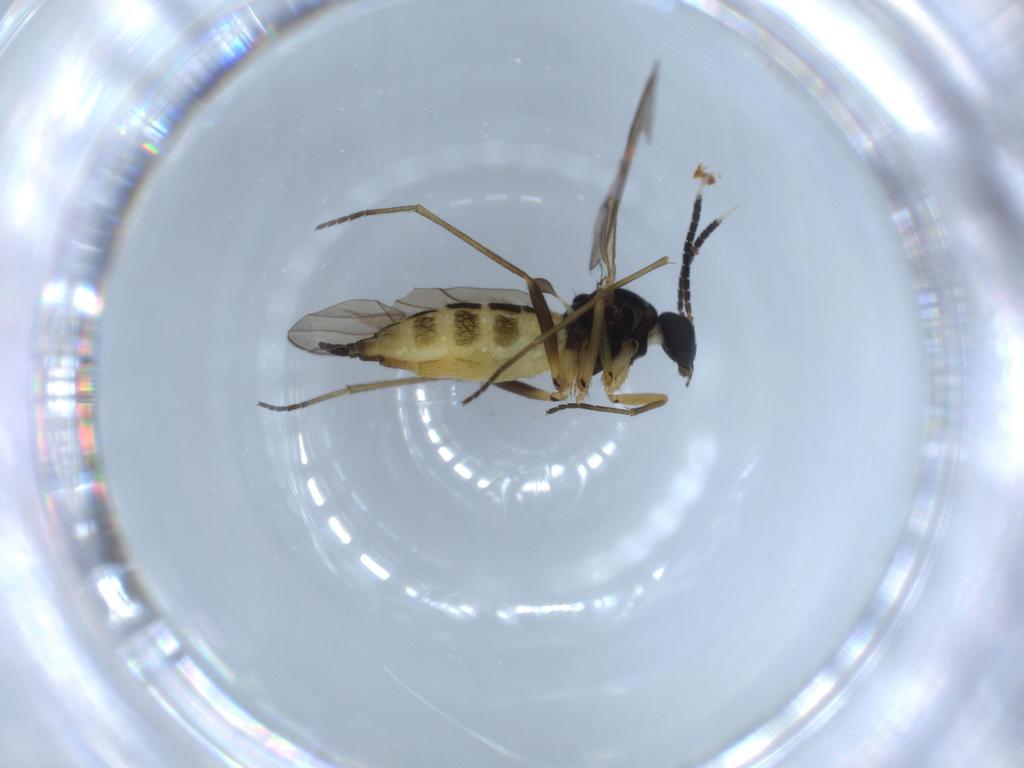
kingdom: Animalia
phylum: Arthropoda
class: Insecta
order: Diptera
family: Sciaridae
